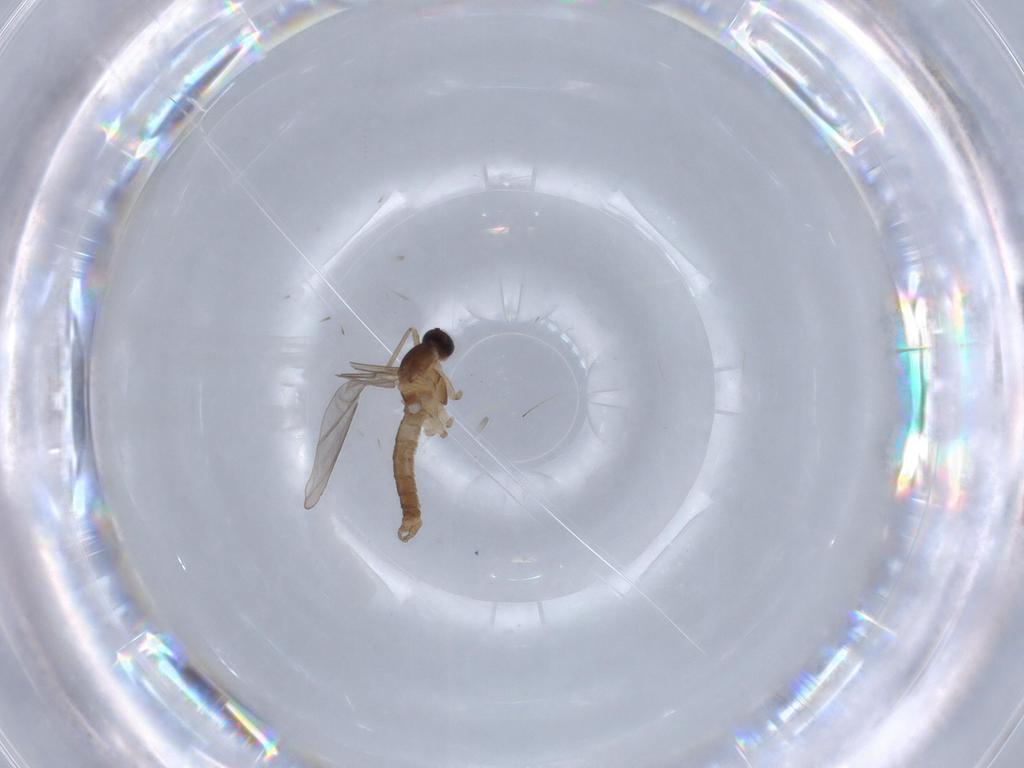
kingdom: Animalia
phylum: Arthropoda
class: Insecta
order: Diptera
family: Cecidomyiidae
